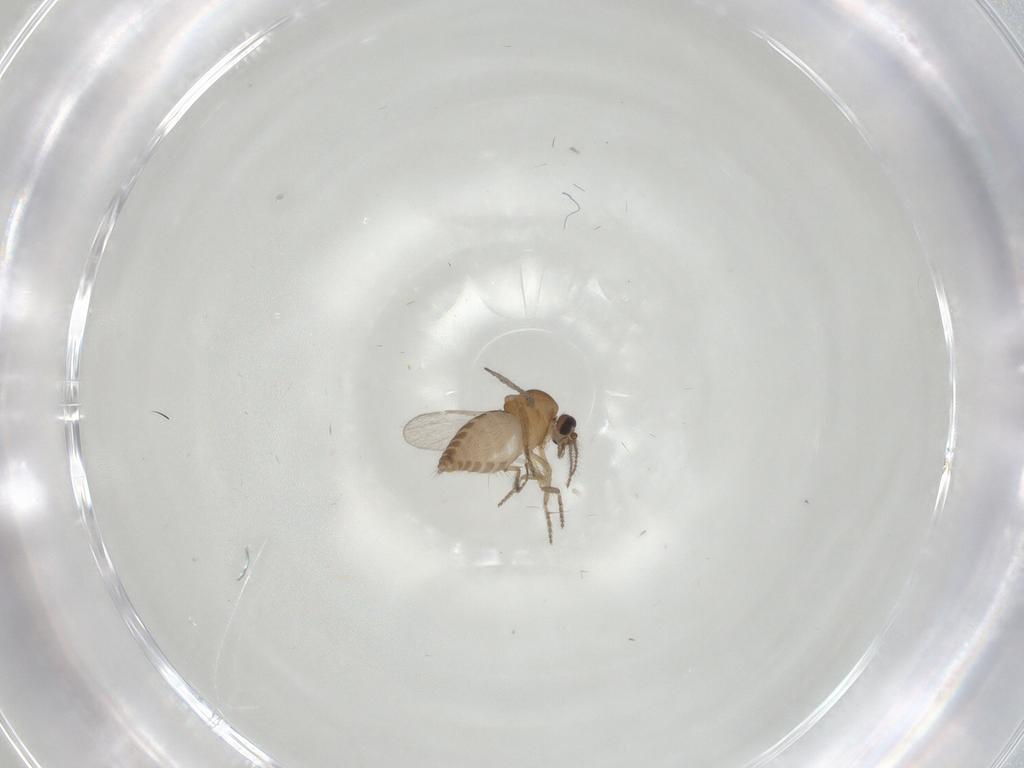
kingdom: Animalia
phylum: Arthropoda
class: Insecta
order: Diptera
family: Ceratopogonidae
